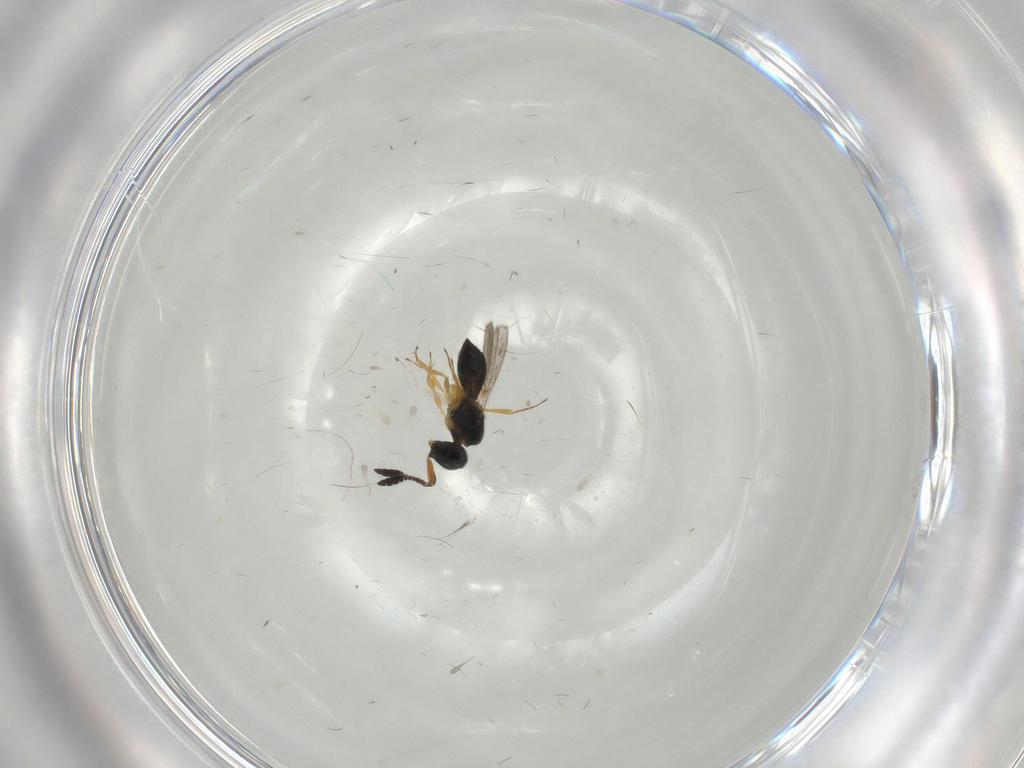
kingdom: Animalia
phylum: Arthropoda
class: Insecta
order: Hymenoptera
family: Scelionidae
